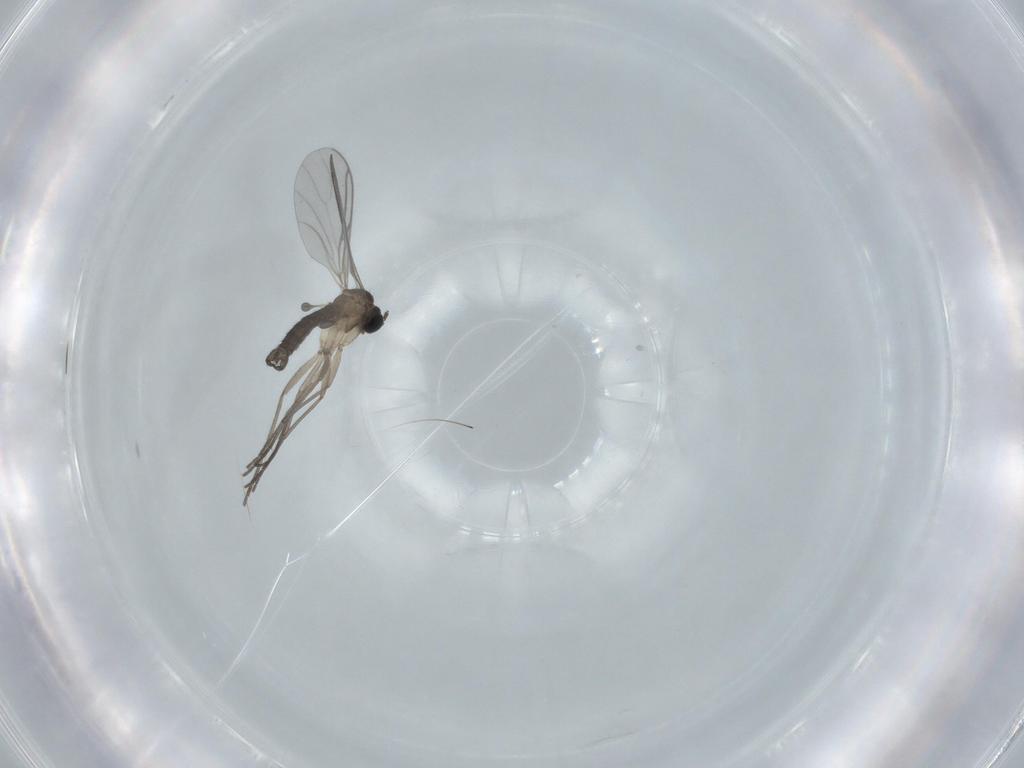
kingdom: Animalia
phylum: Arthropoda
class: Insecta
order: Diptera
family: Sciaridae
